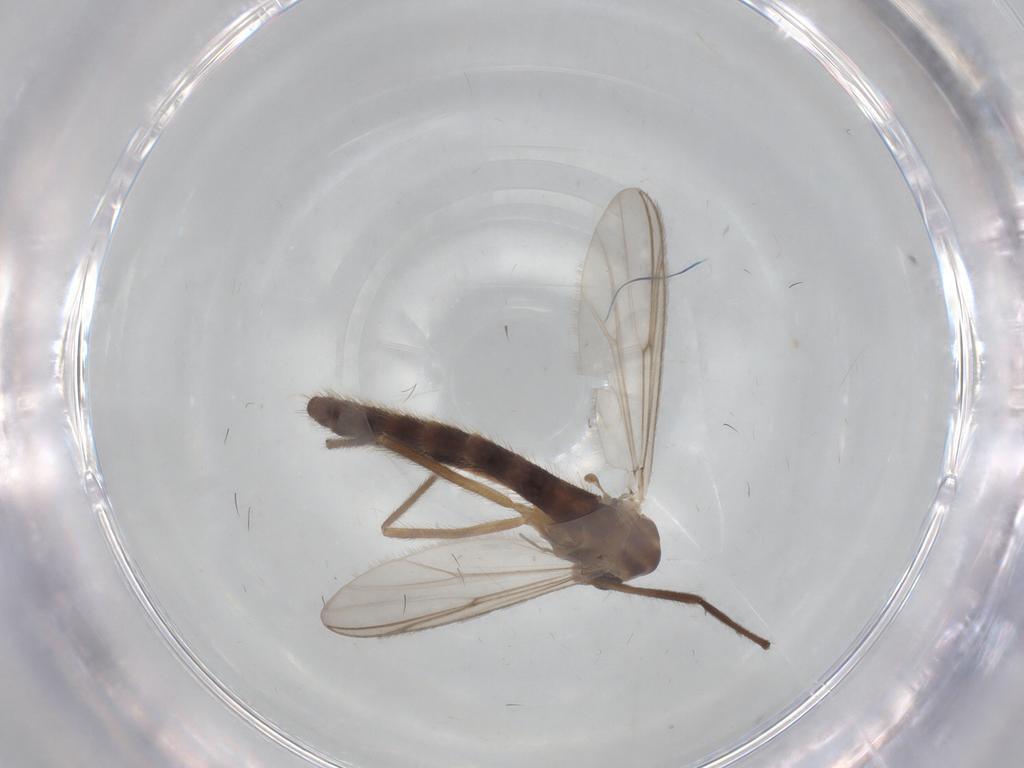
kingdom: Animalia
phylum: Arthropoda
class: Insecta
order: Diptera
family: Chironomidae
